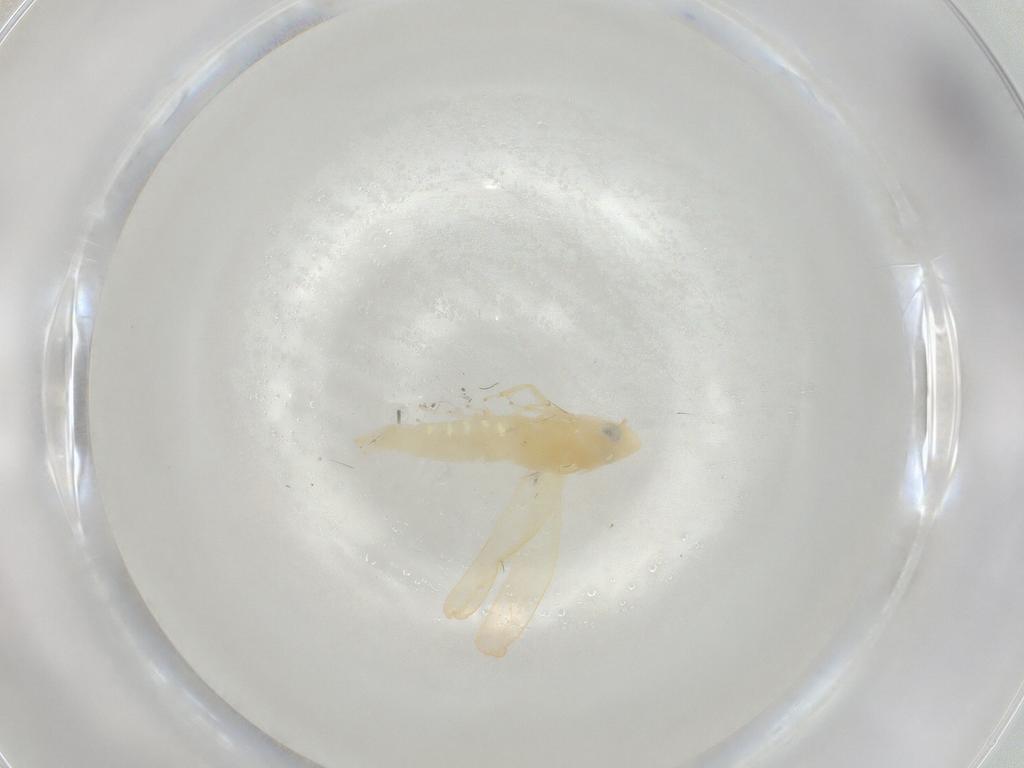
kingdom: Animalia
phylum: Arthropoda
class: Insecta
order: Hemiptera
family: Cicadellidae
